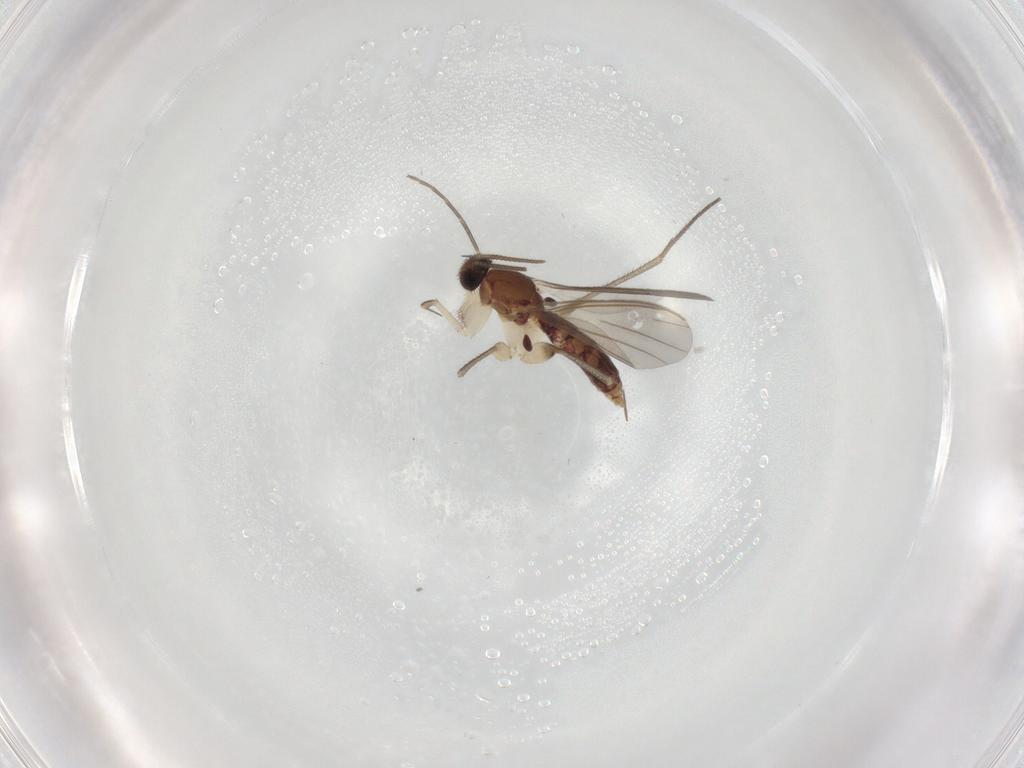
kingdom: Animalia
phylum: Arthropoda
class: Insecta
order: Diptera
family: Mycetophilidae
